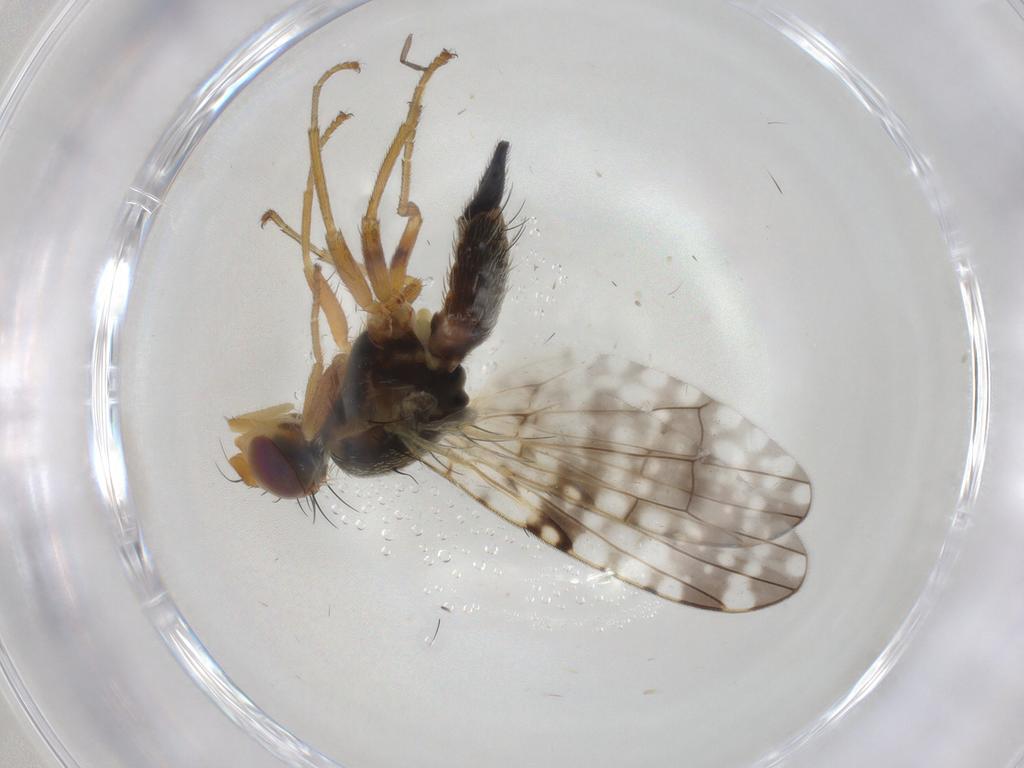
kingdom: Animalia
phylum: Arthropoda
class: Insecta
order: Diptera
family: Tephritidae
